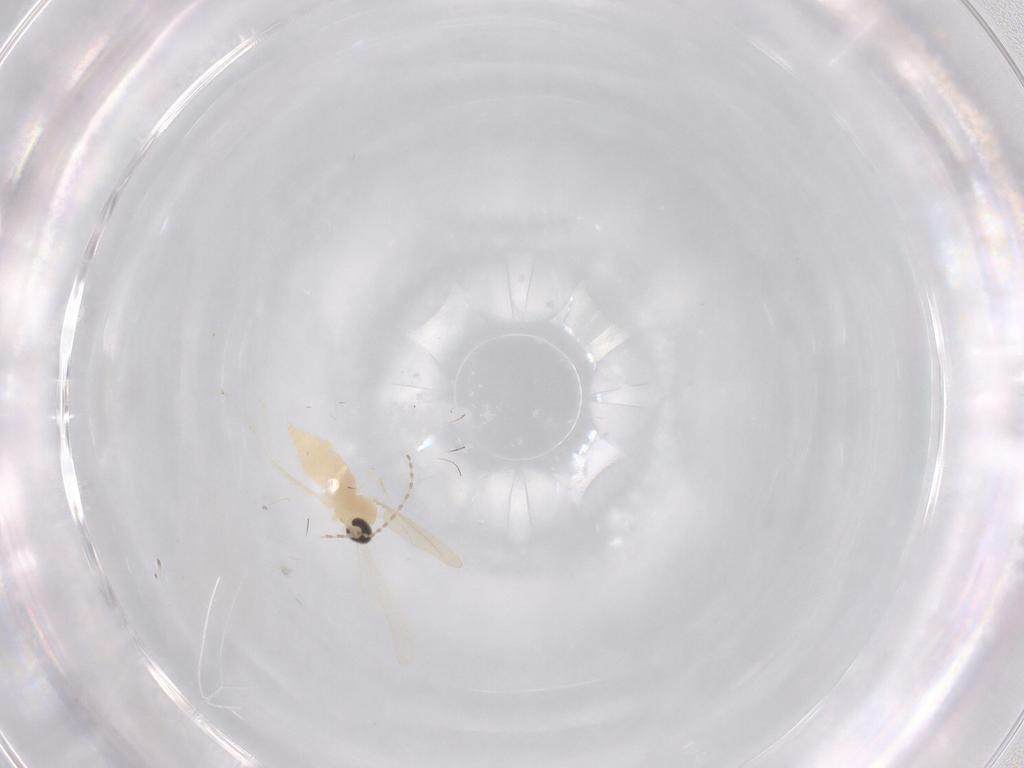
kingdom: Animalia
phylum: Arthropoda
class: Insecta
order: Diptera
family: Cecidomyiidae
